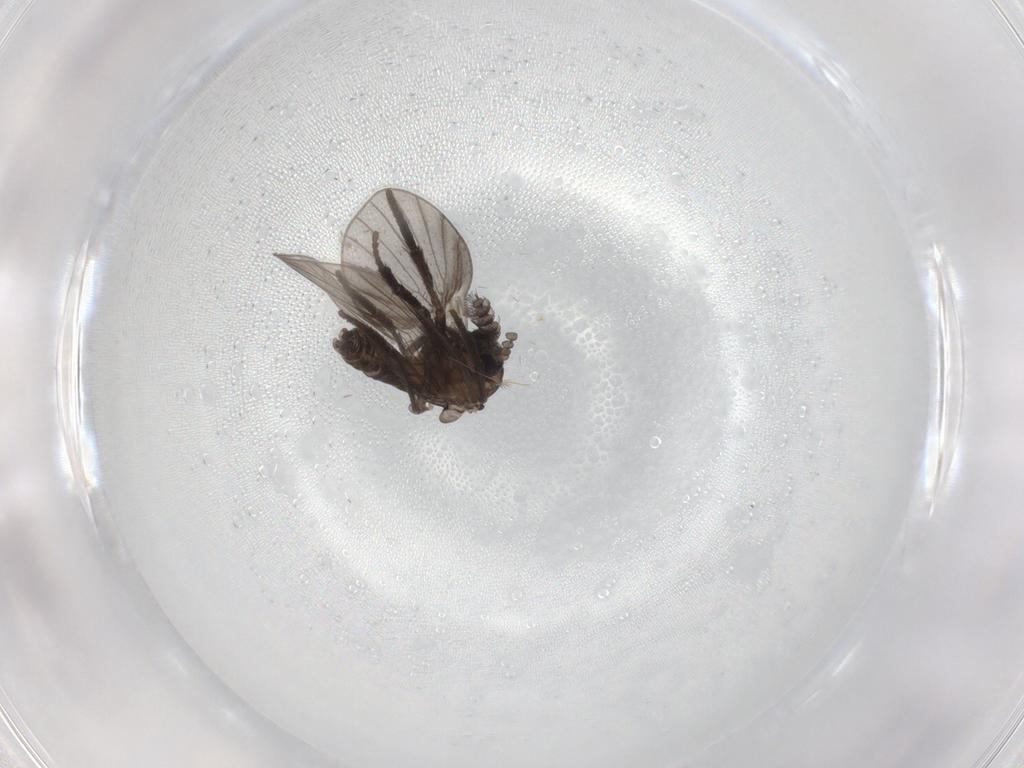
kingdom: Animalia
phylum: Arthropoda
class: Insecta
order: Diptera
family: Psychodidae
